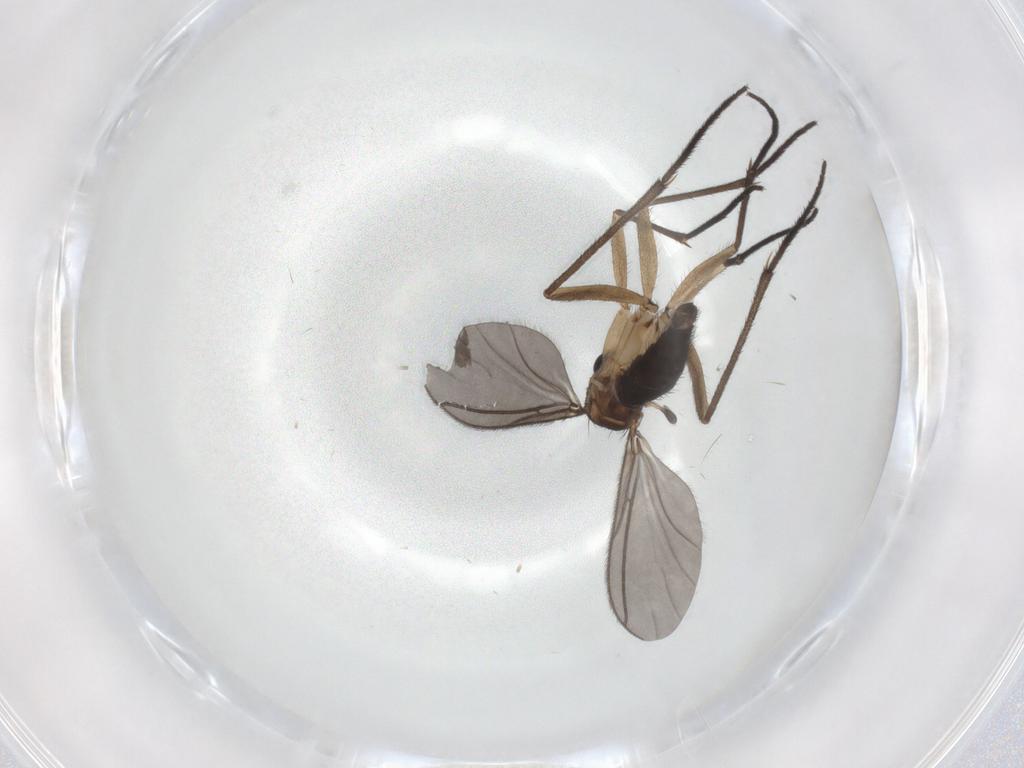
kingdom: Animalia
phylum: Arthropoda
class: Insecta
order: Diptera
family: Sciaridae
